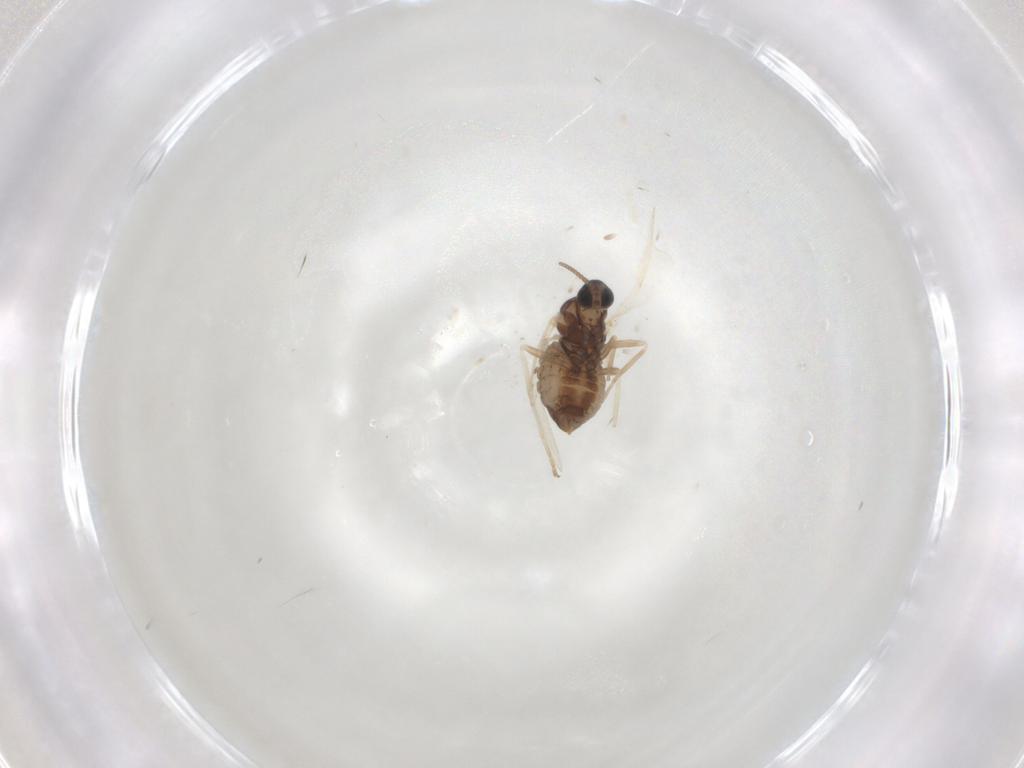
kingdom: Animalia
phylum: Arthropoda
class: Insecta
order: Diptera
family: Cecidomyiidae
